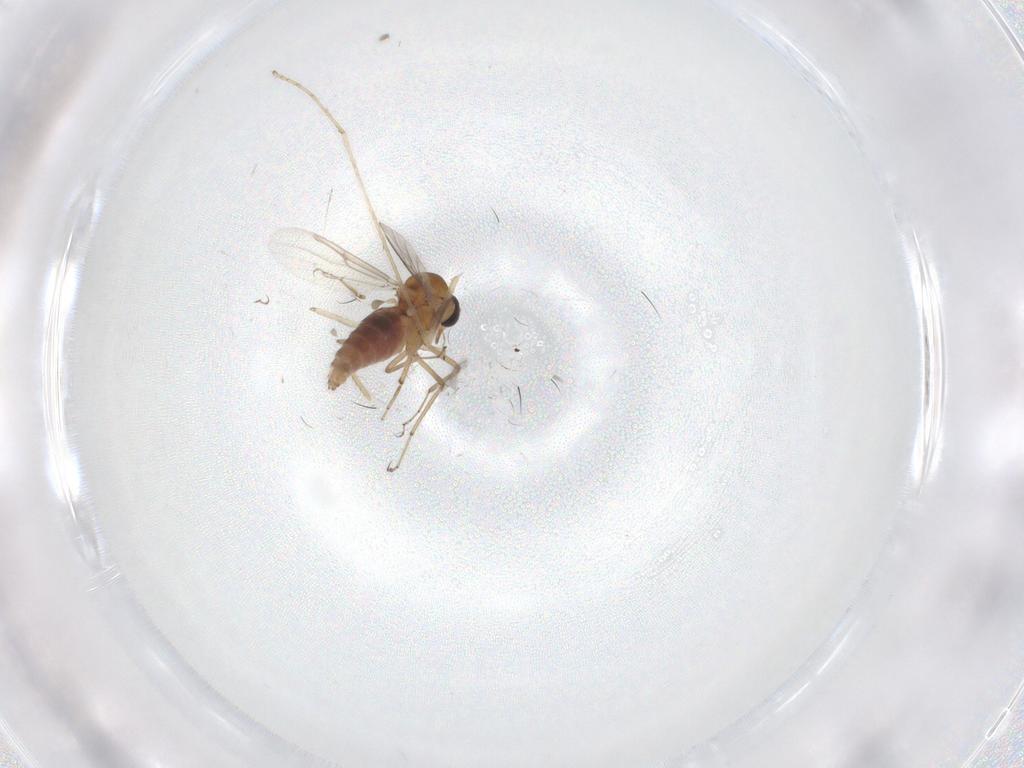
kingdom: Animalia
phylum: Arthropoda
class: Insecta
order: Diptera
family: Limoniidae
